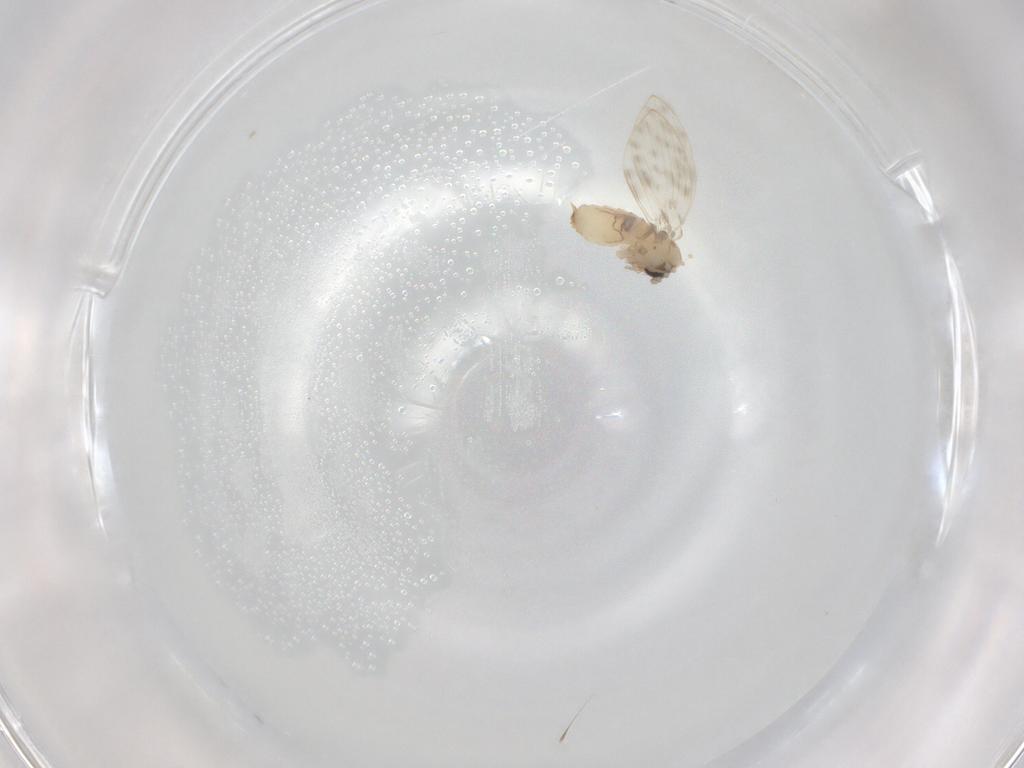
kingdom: Animalia
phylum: Arthropoda
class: Insecta
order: Diptera
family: Chironomidae
